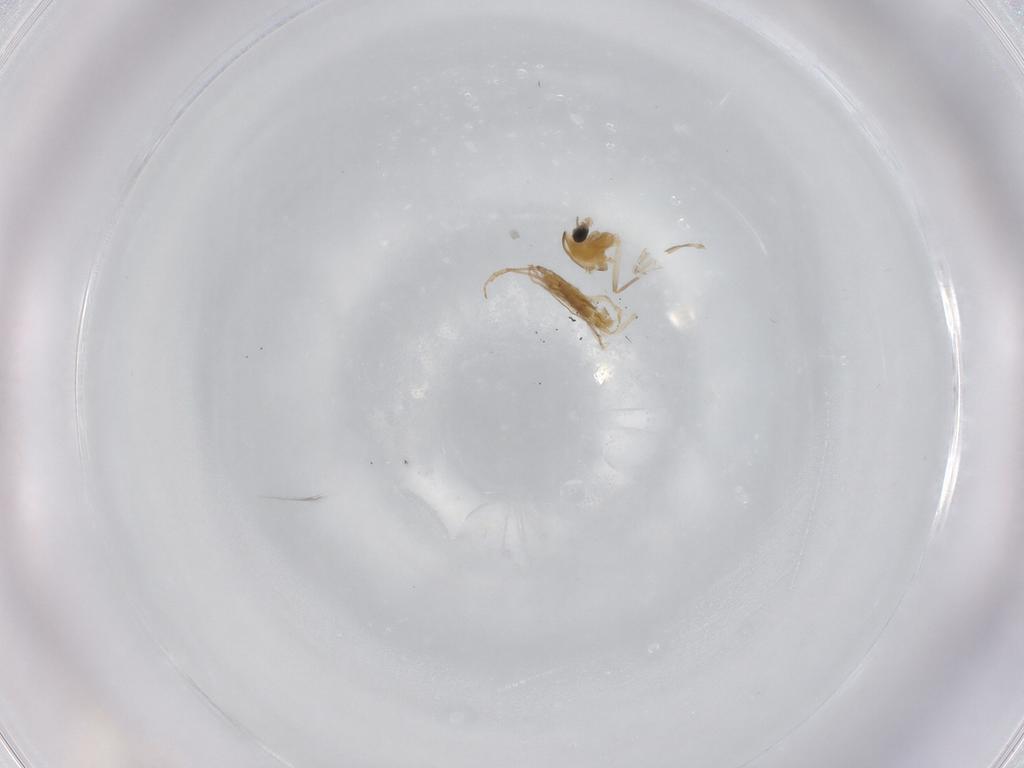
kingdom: Animalia
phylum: Arthropoda
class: Insecta
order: Diptera
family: Chironomidae
